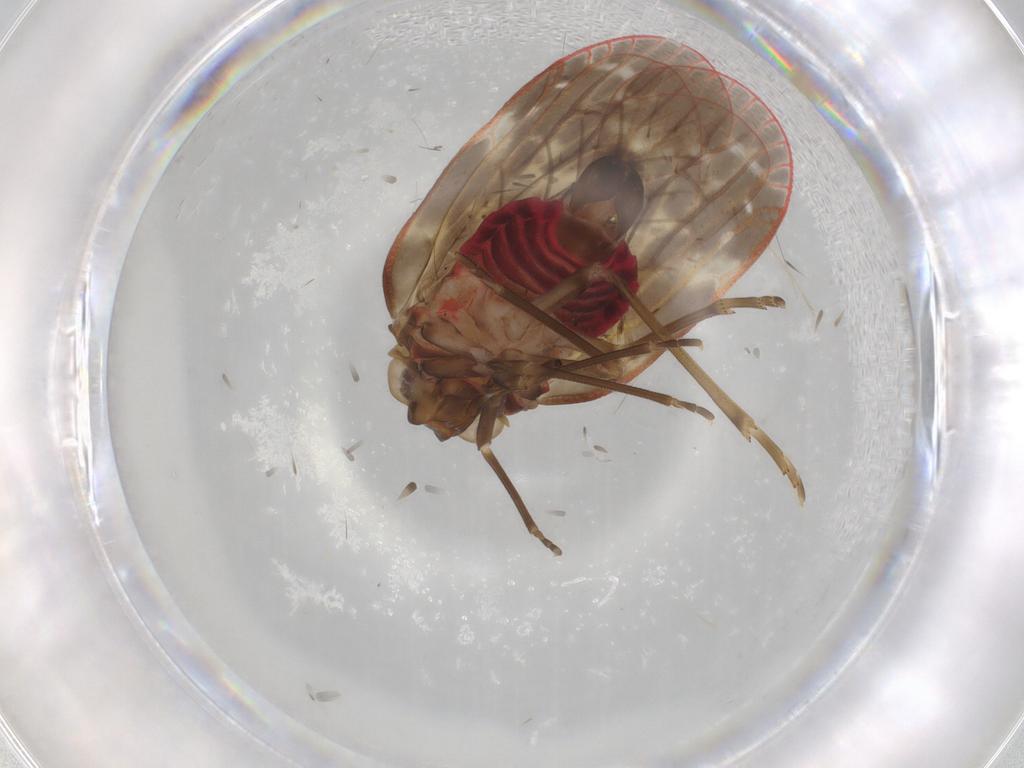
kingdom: Animalia
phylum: Arthropoda
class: Insecta
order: Hemiptera
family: Achilidae
